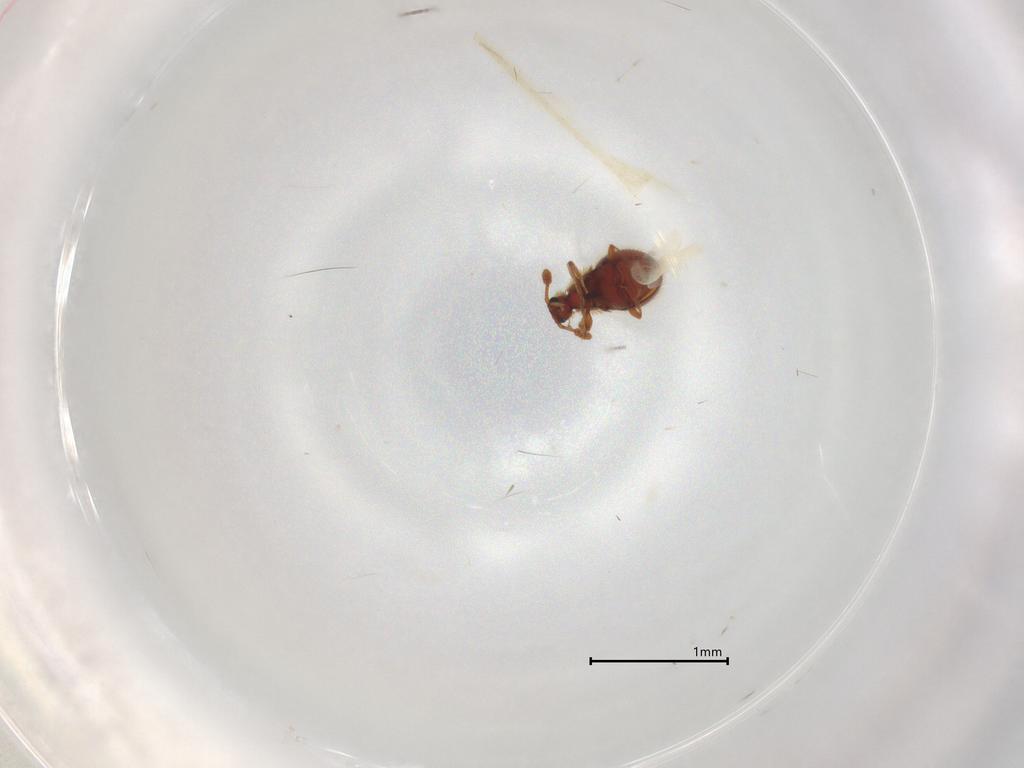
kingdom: Animalia
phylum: Arthropoda
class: Insecta
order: Coleoptera
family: Staphylinidae
